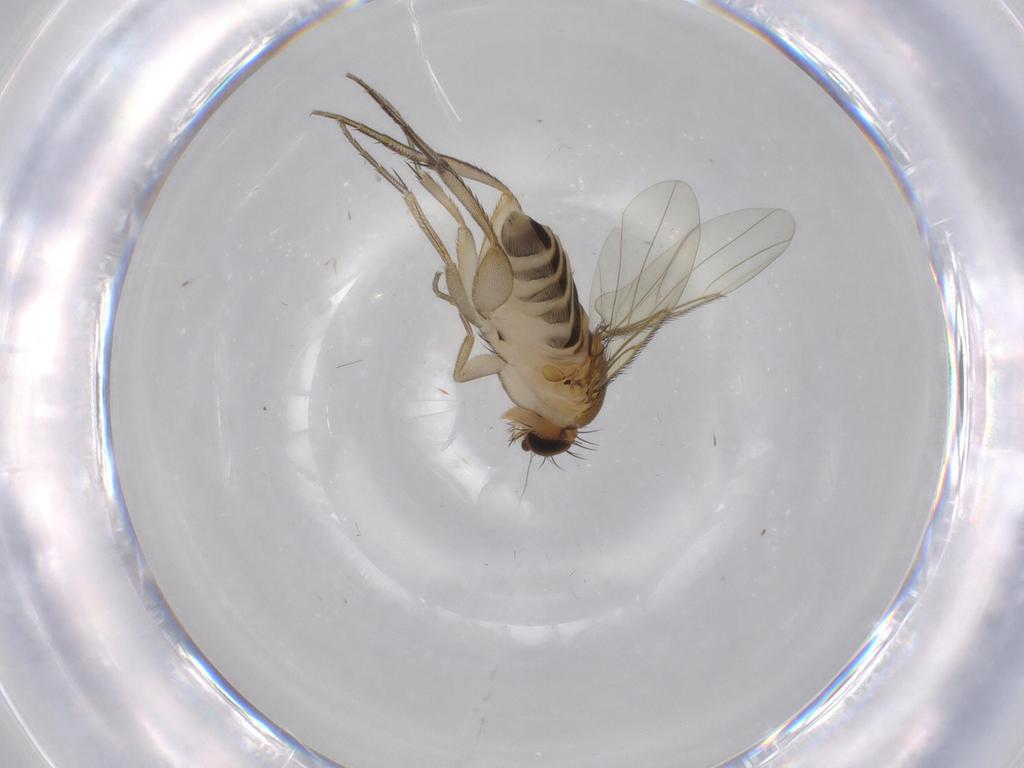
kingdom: Animalia
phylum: Arthropoda
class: Insecta
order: Diptera
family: Phoridae
